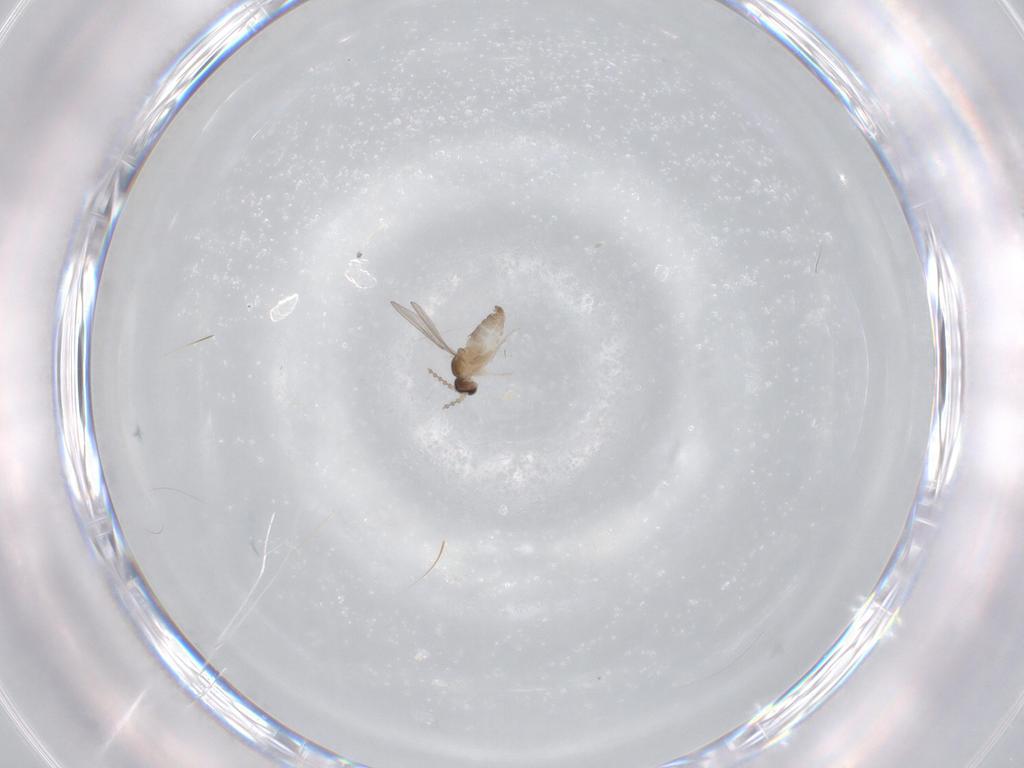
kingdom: Animalia
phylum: Arthropoda
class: Insecta
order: Diptera
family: Cecidomyiidae
